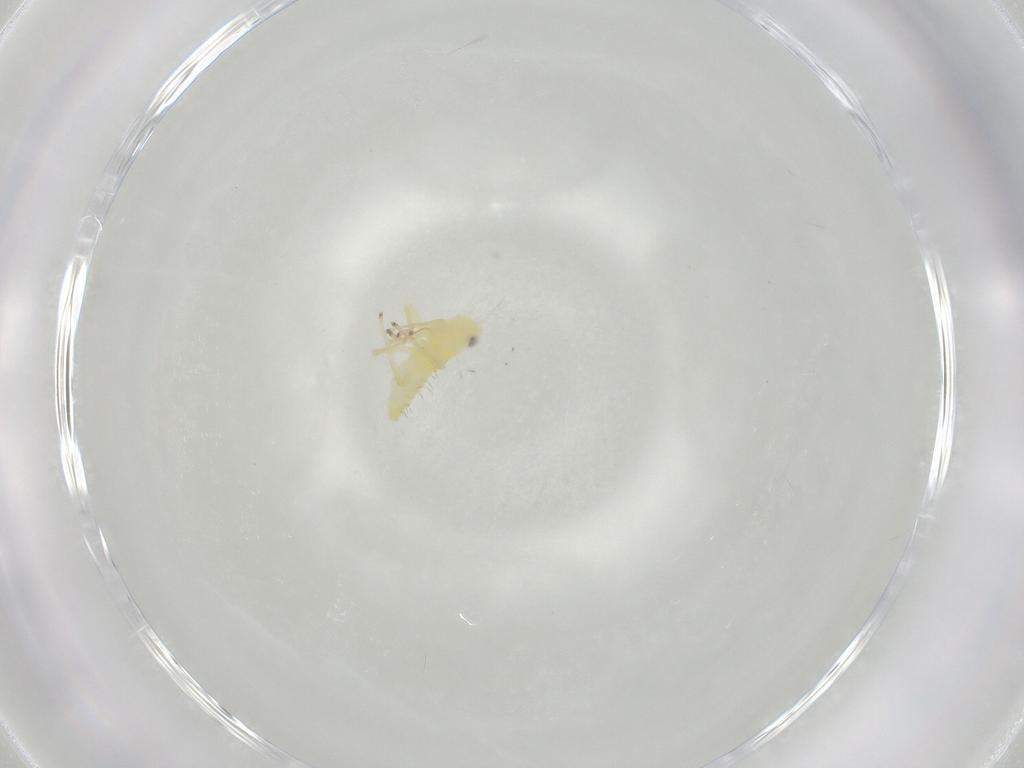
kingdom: Animalia
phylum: Arthropoda
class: Insecta
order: Hemiptera
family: Cicadellidae
